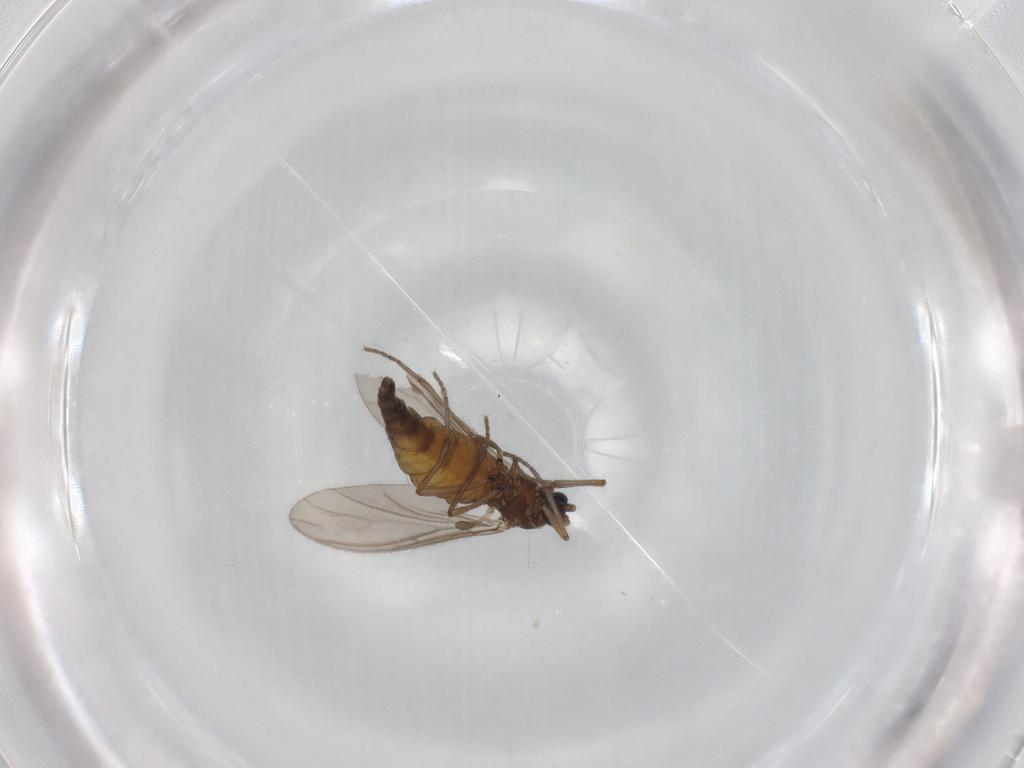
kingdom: Animalia
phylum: Arthropoda
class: Insecta
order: Diptera
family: Sciaridae
